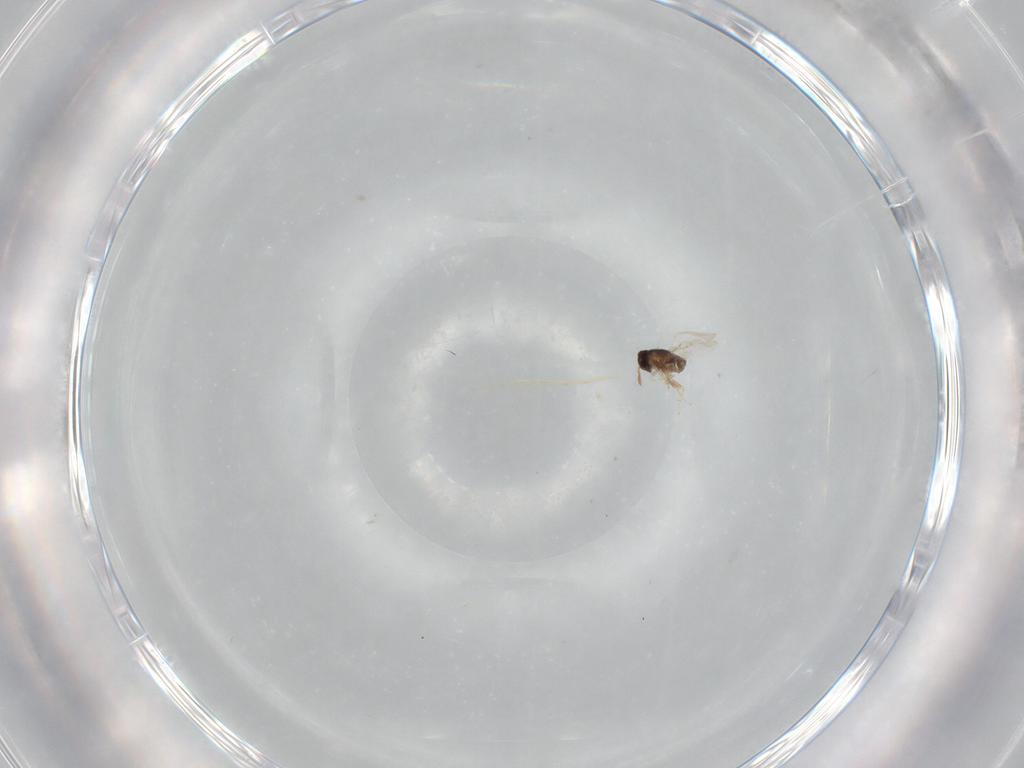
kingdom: Animalia
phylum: Arthropoda
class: Insecta
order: Hymenoptera
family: Encyrtidae
